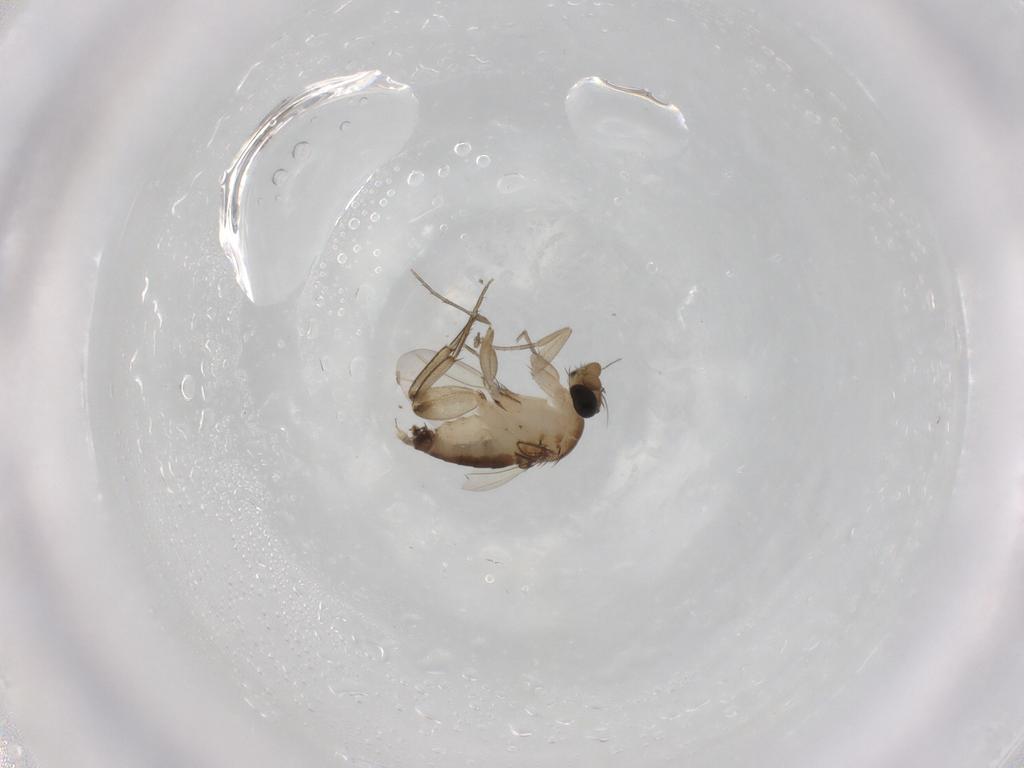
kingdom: Animalia
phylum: Arthropoda
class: Insecta
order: Diptera
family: Phoridae
